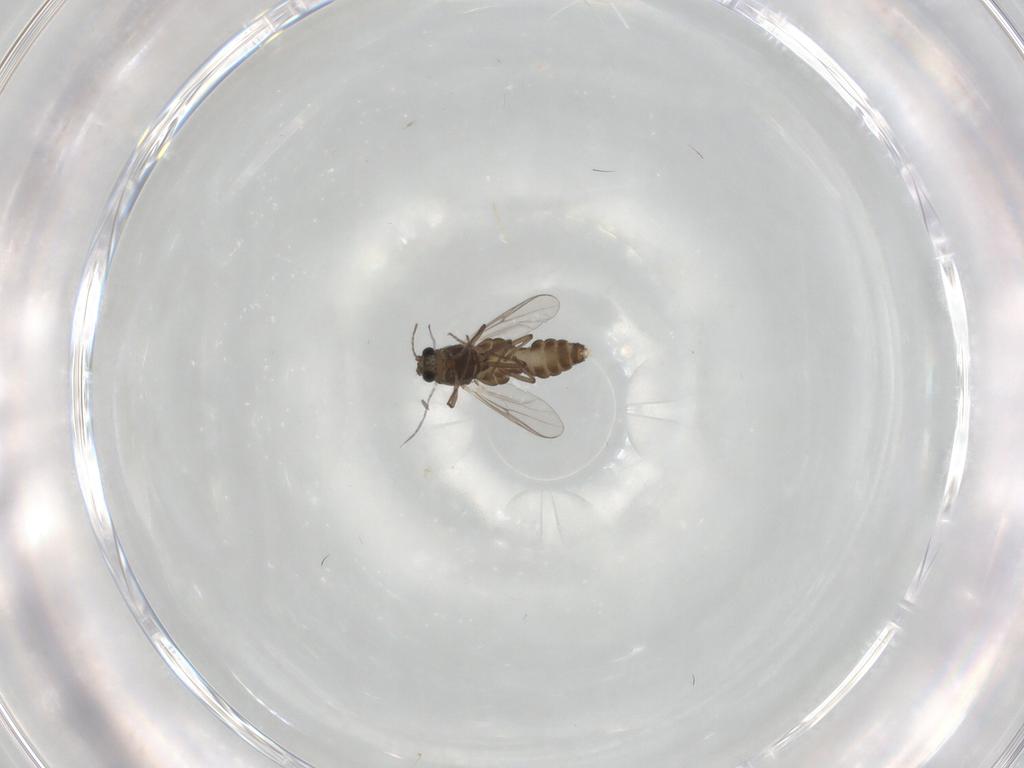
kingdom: Animalia
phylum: Arthropoda
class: Insecta
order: Diptera
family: Chironomidae
